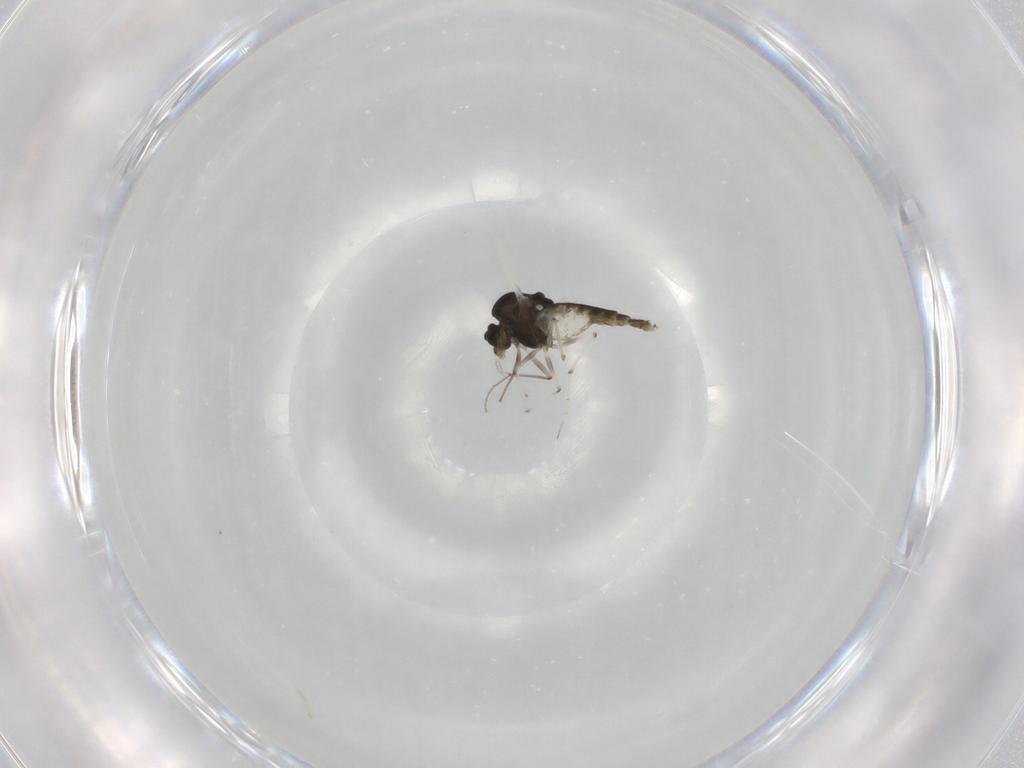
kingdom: Animalia
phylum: Arthropoda
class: Insecta
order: Diptera
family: Chironomidae
